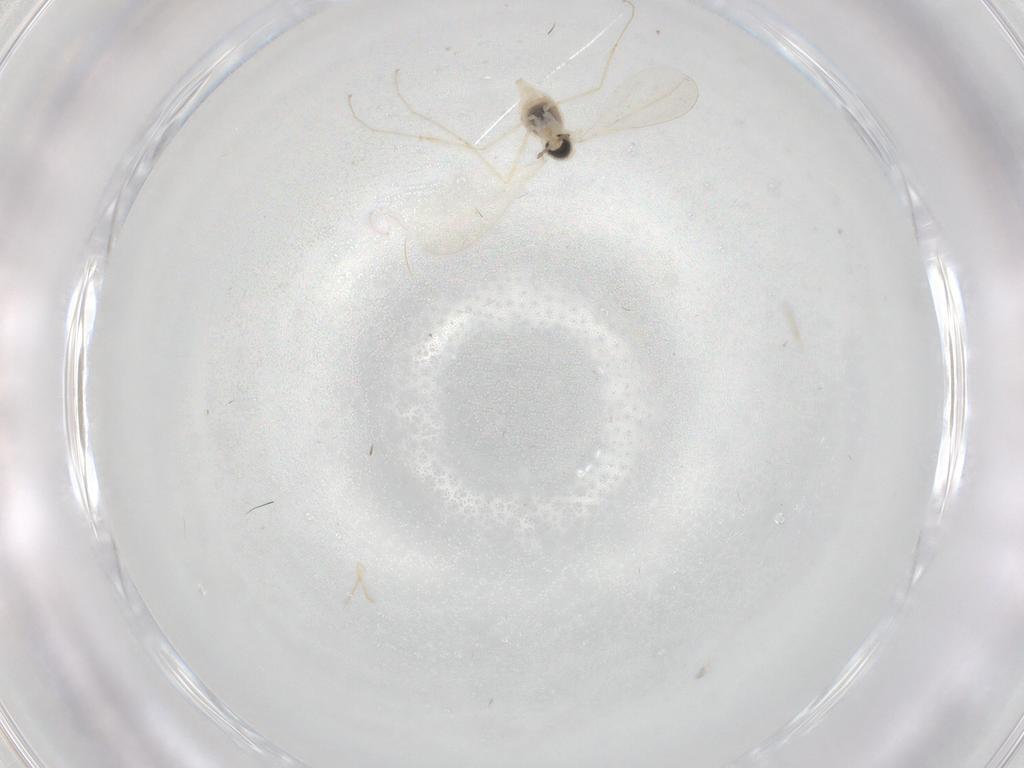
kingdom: Animalia
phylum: Arthropoda
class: Insecta
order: Diptera
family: Ceratopogonidae
